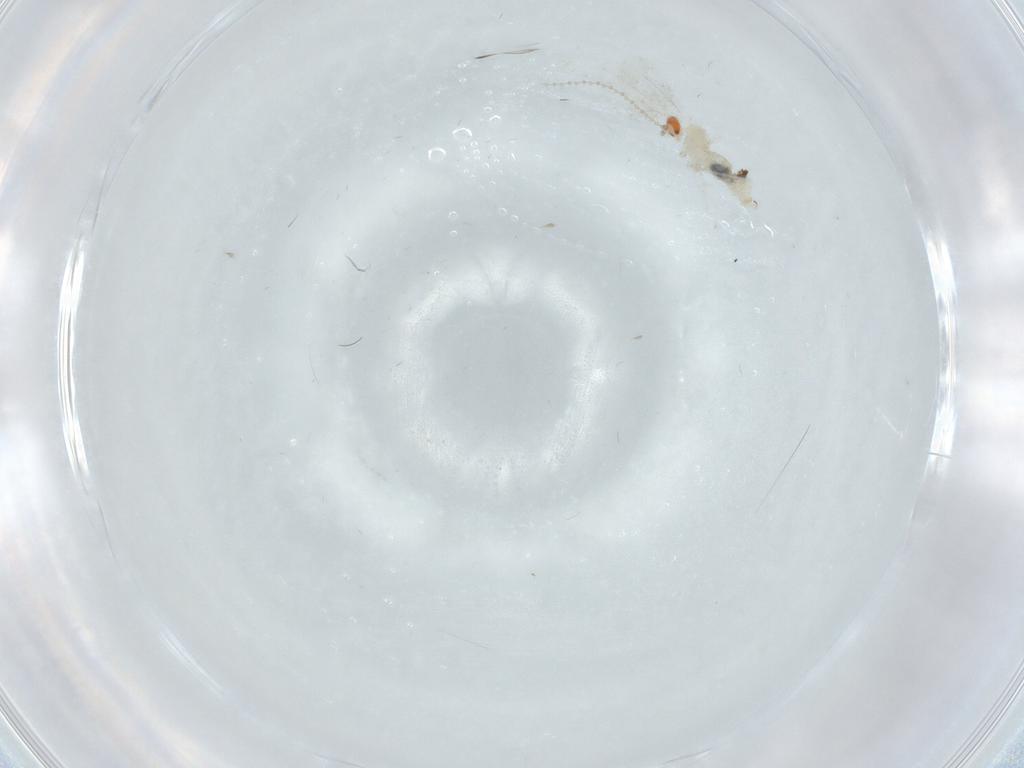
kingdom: Animalia
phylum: Arthropoda
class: Insecta
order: Diptera
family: Cecidomyiidae
